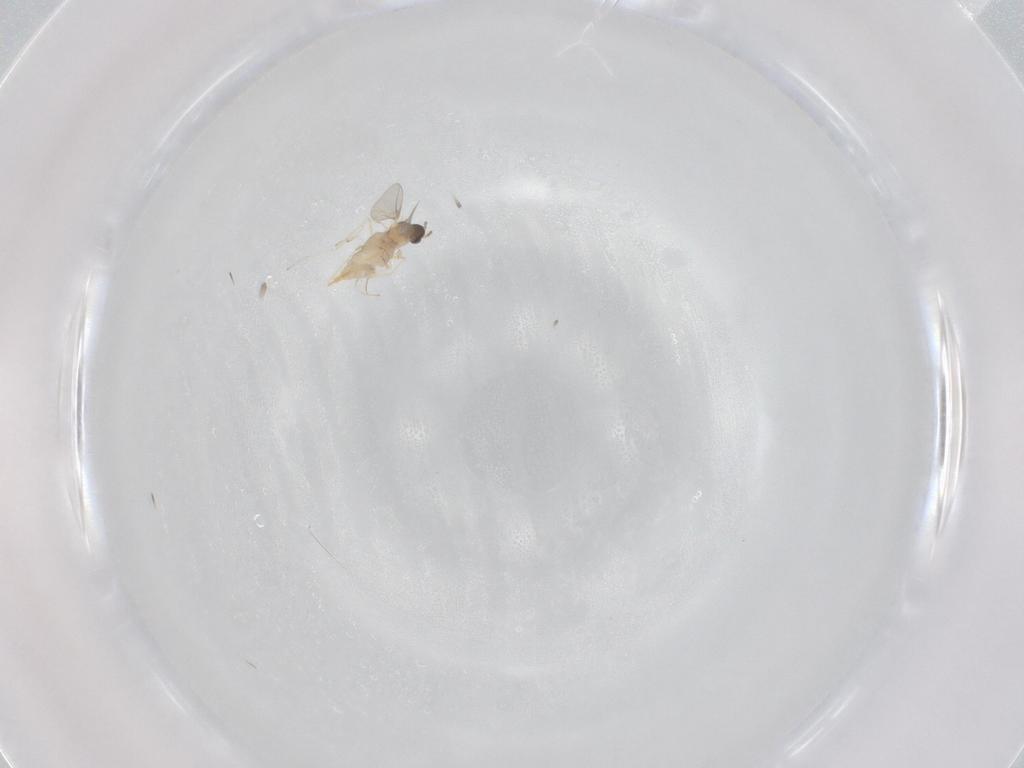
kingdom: Animalia
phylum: Arthropoda
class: Insecta
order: Diptera
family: Cecidomyiidae
